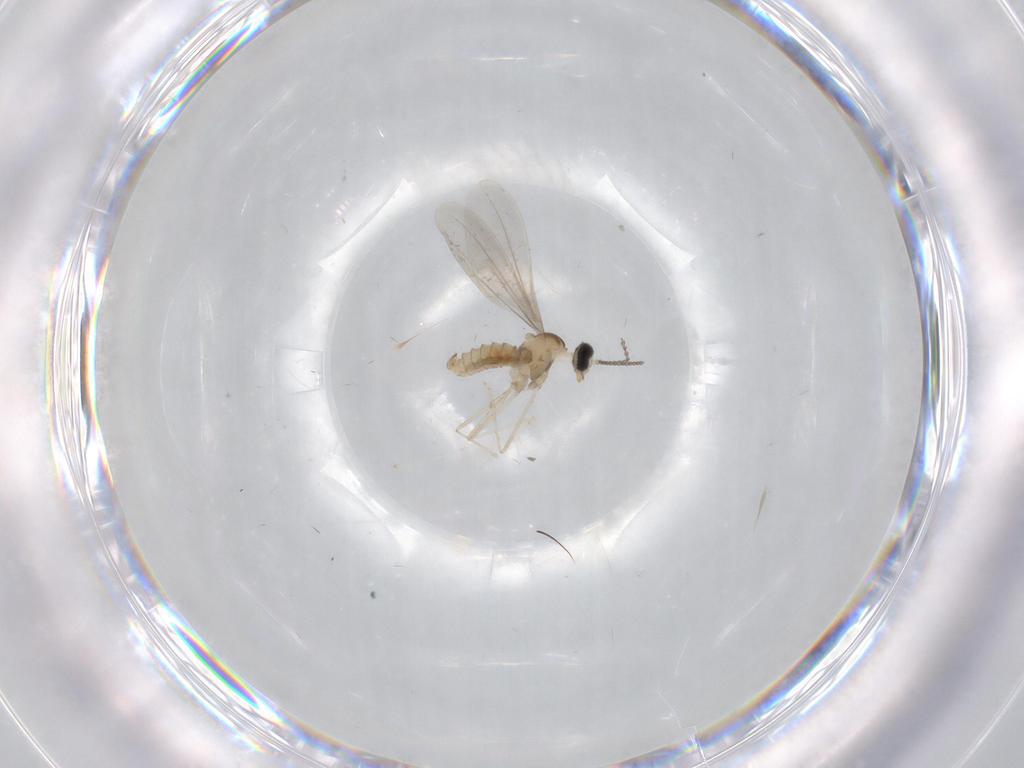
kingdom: Animalia
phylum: Arthropoda
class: Insecta
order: Diptera
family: Cecidomyiidae
